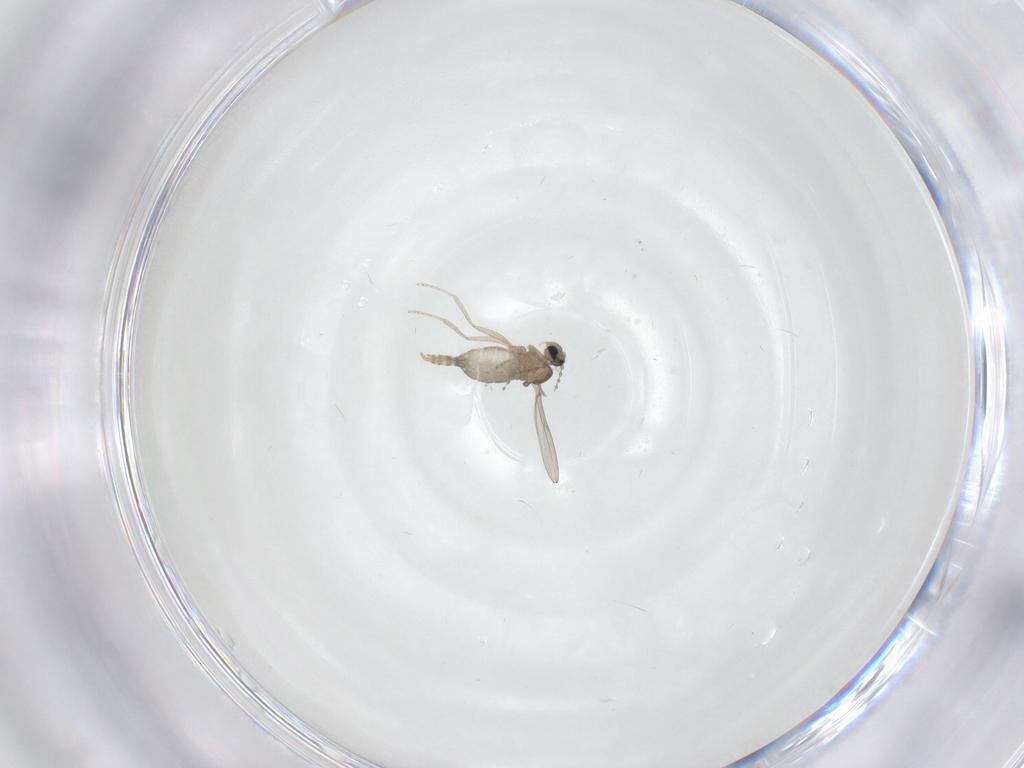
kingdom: Animalia
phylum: Arthropoda
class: Insecta
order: Diptera
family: Cecidomyiidae
